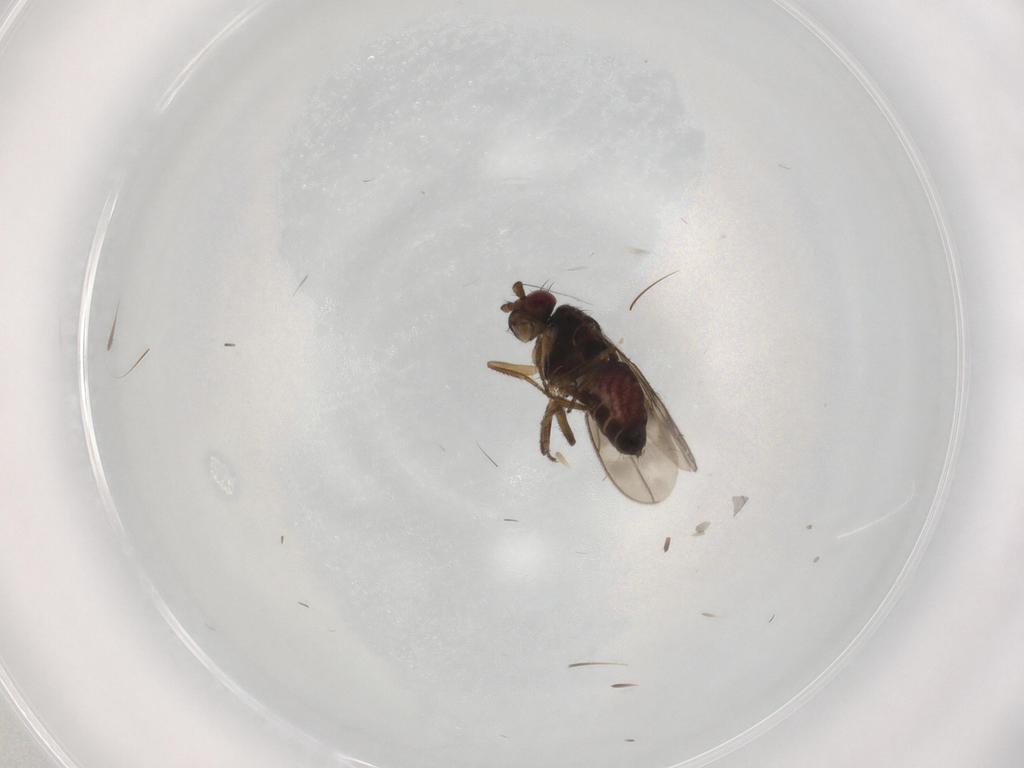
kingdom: Animalia
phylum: Arthropoda
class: Insecta
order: Diptera
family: Sphaeroceridae
